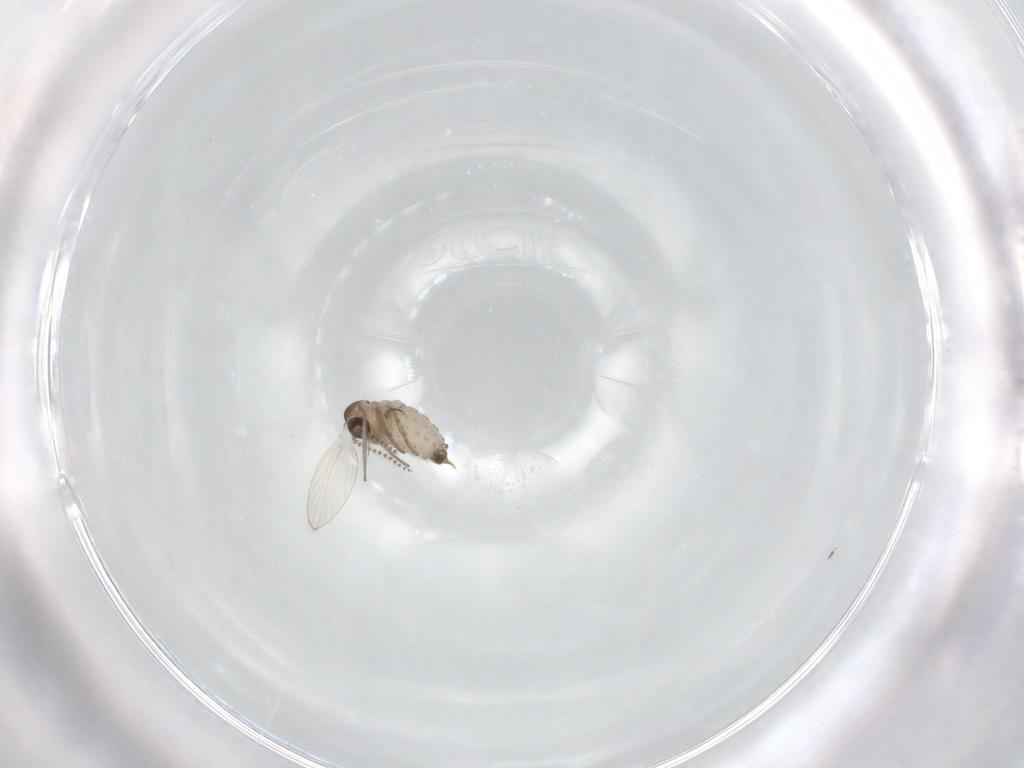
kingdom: Animalia
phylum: Arthropoda
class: Insecta
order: Diptera
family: Psychodidae
